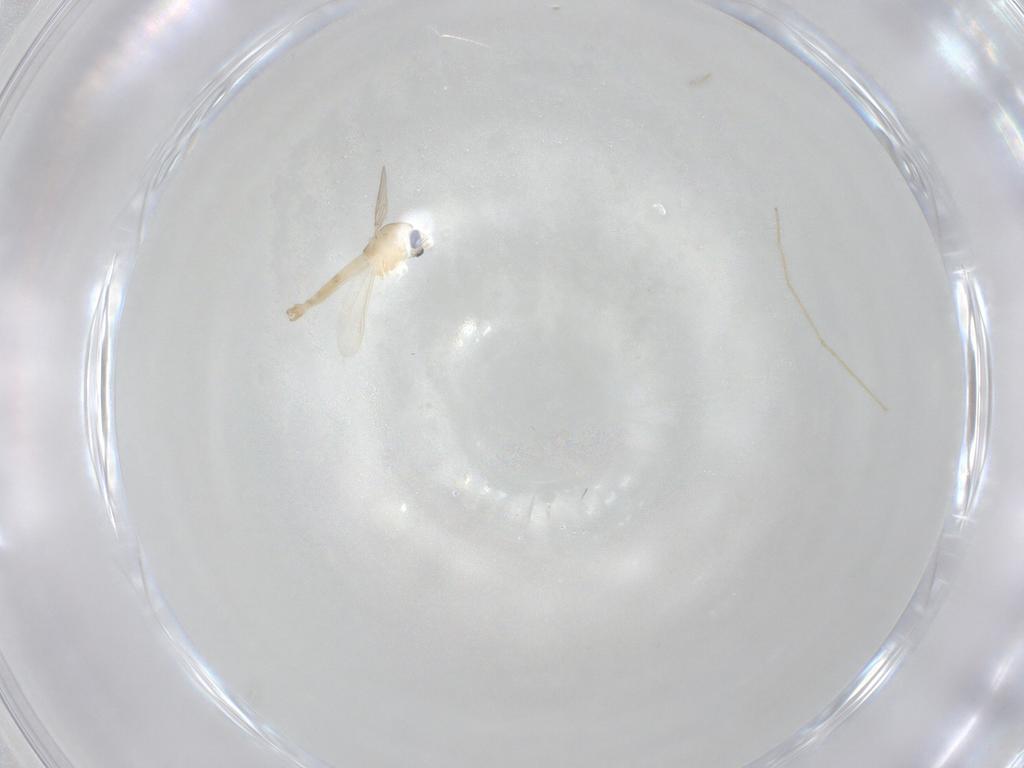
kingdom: Animalia
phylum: Arthropoda
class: Insecta
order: Diptera
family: Chironomidae
